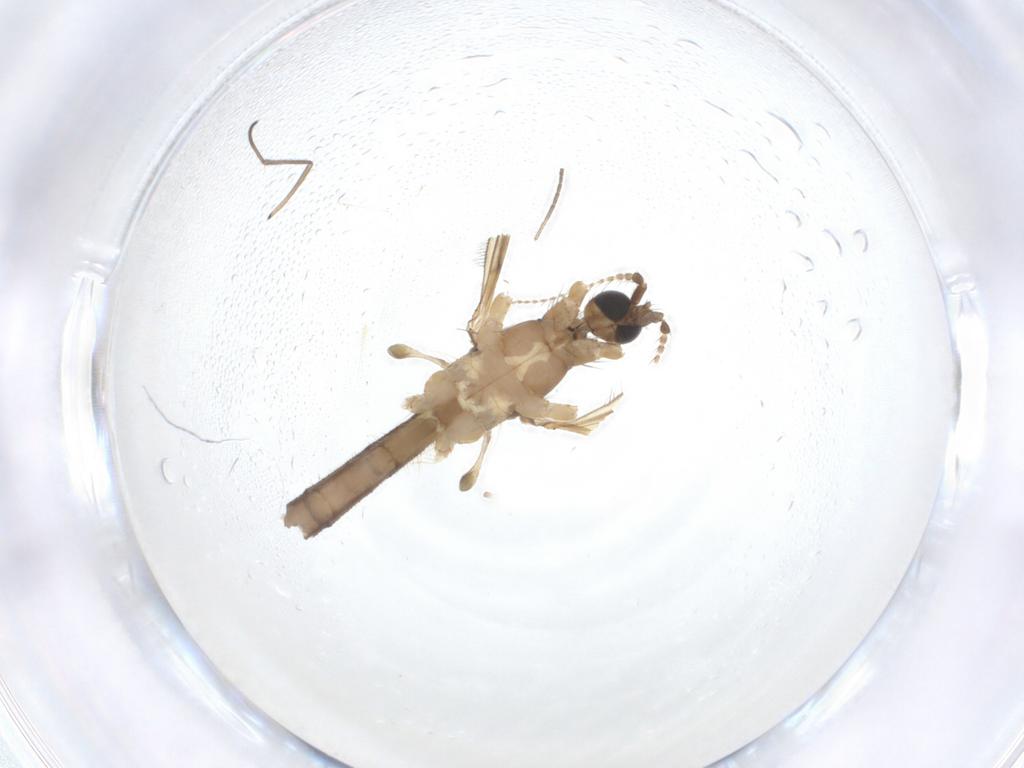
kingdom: Animalia
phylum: Arthropoda
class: Insecta
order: Diptera
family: Limoniidae
